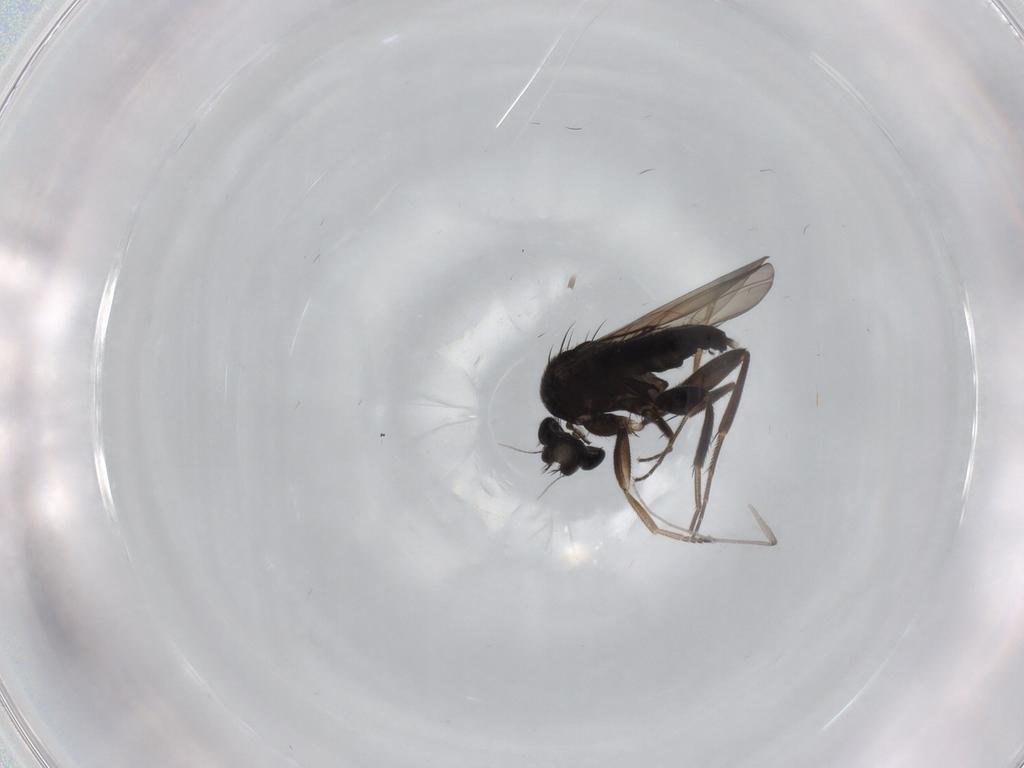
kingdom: Animalia
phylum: Arthropoda
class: Insecta
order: Diptera
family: Phoridae
